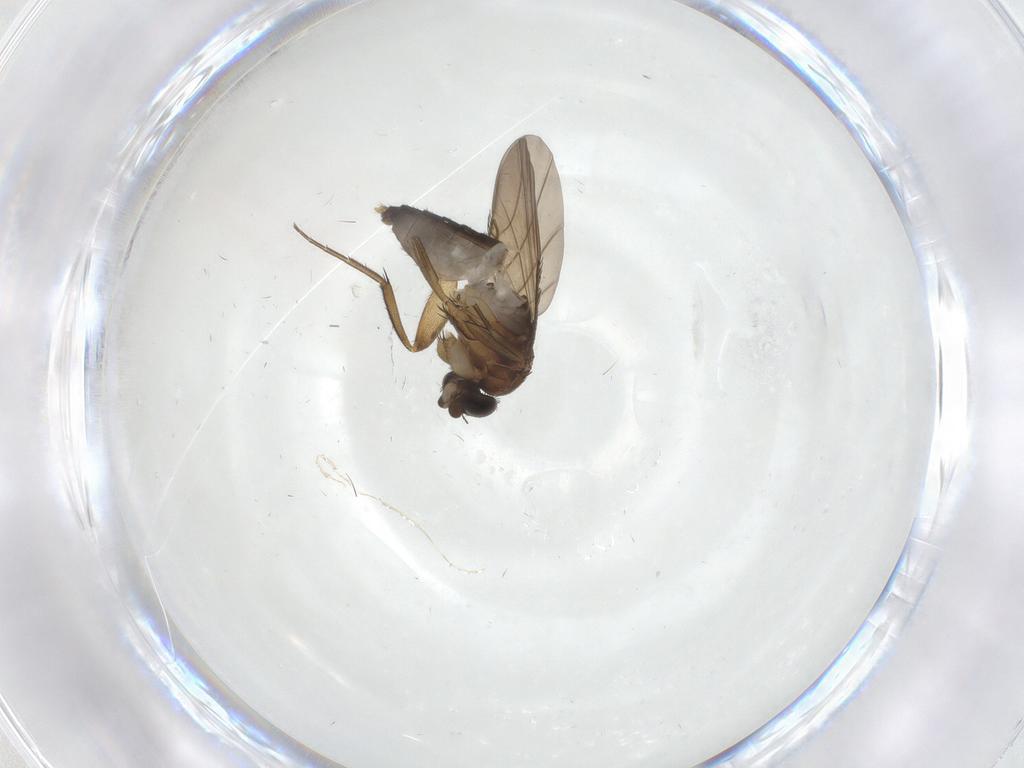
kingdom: Animalia
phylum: Arthropoda
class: Insecta
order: Diptera
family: Phoridae
